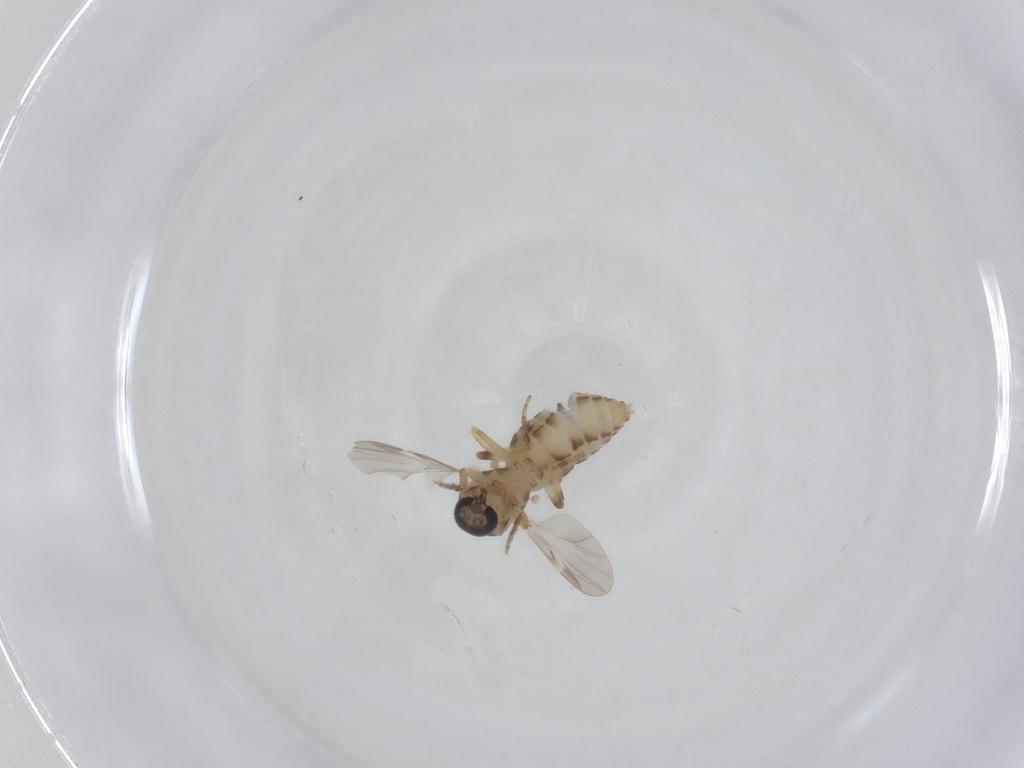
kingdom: Animalia
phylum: Arthropoda
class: Insecta
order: Diptera
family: Ceratopogonidae
